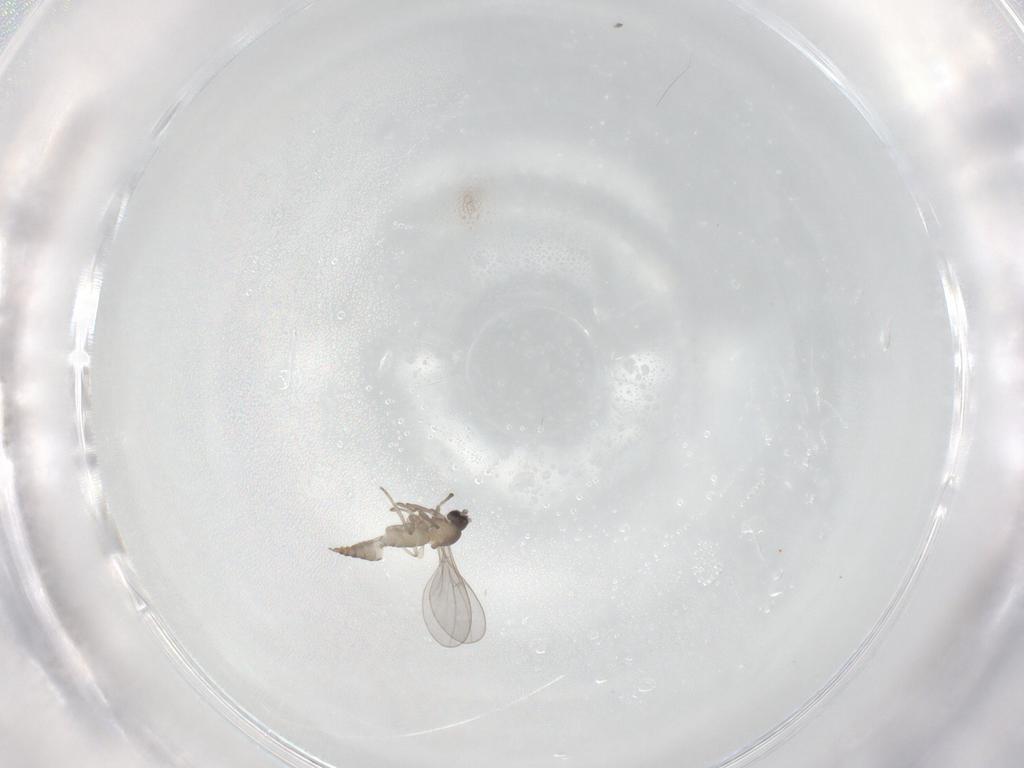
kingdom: Animalia
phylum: Arthropoda
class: Insecta
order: Diptera
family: Cecidomyiidae
